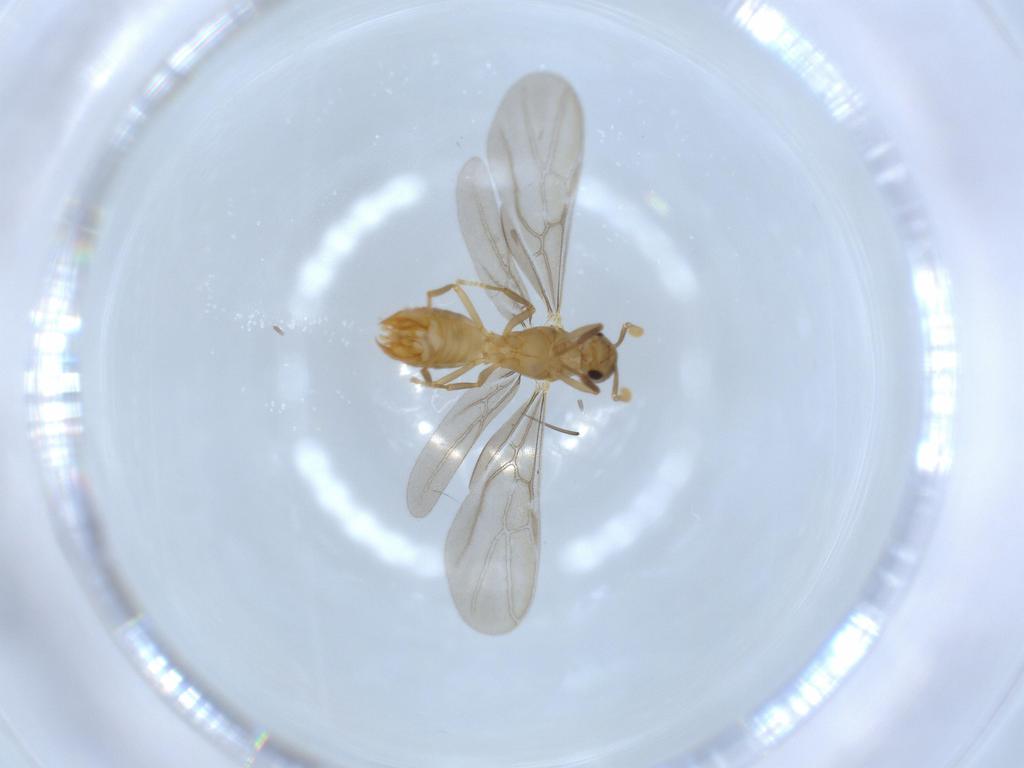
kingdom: Animalia
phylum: Arthropoda
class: Insecta
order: Hymenoptera
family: Formicidae
